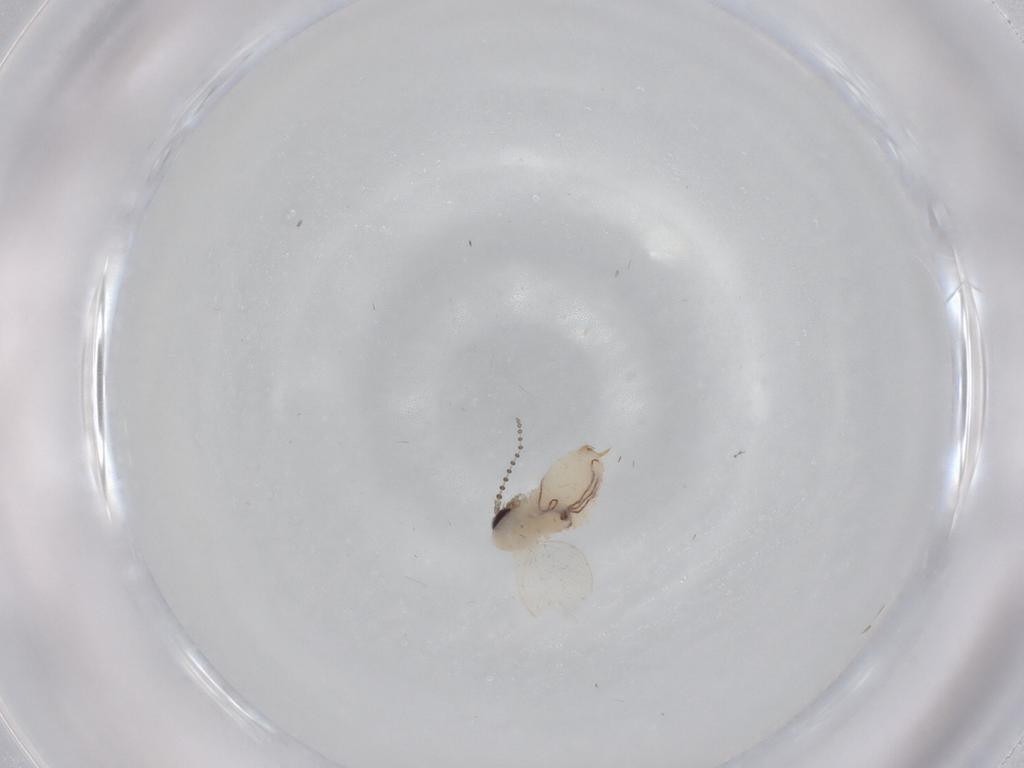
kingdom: Animalia
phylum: Arthropoda
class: Insecta
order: Diptera
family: Psychodidae
